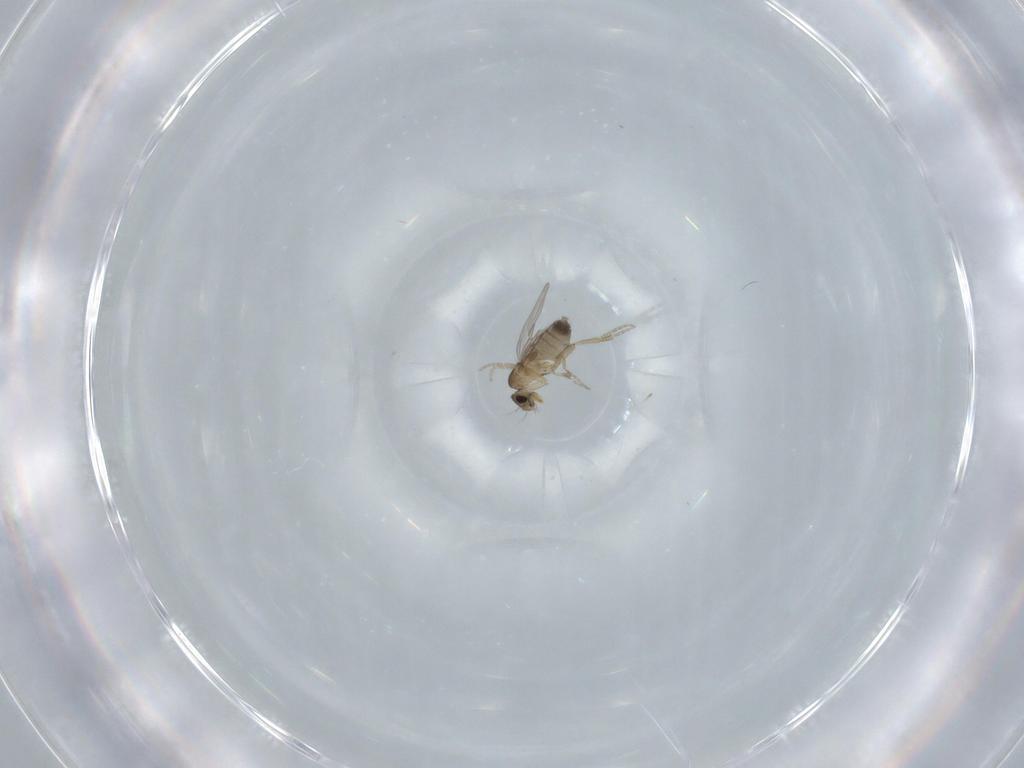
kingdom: Animalia
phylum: Arthropoda
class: Insecta
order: Diptera
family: Phoridae
